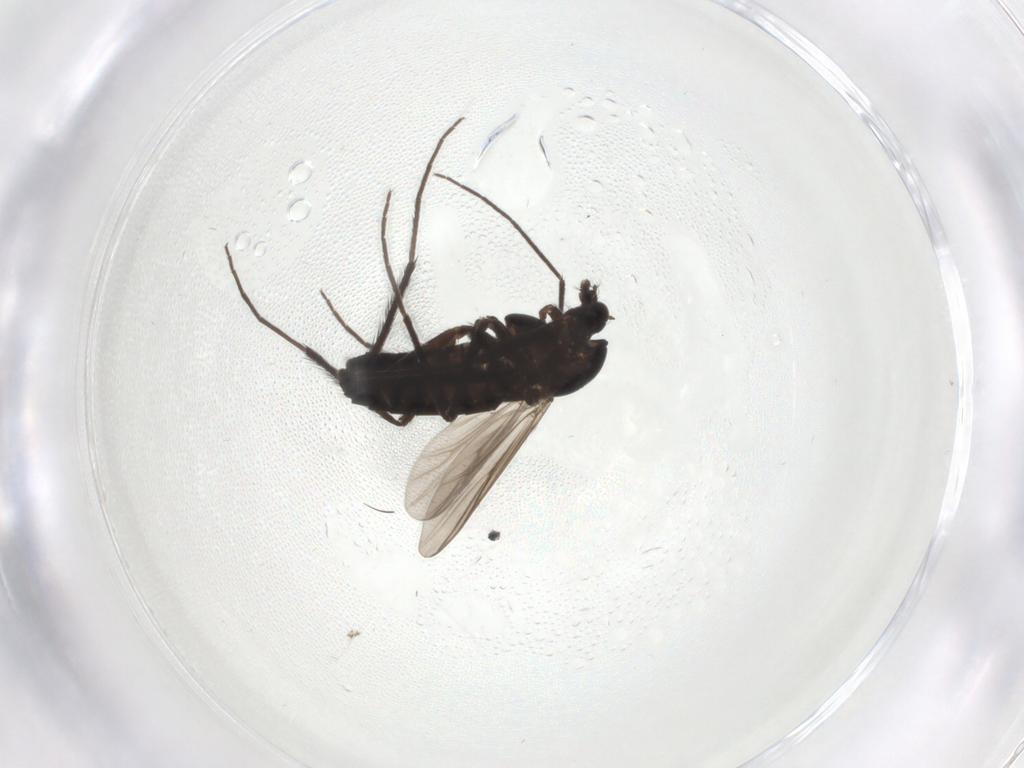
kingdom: Animalia
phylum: Arthropoda
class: Insecta
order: Diptera
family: Chironomidae
